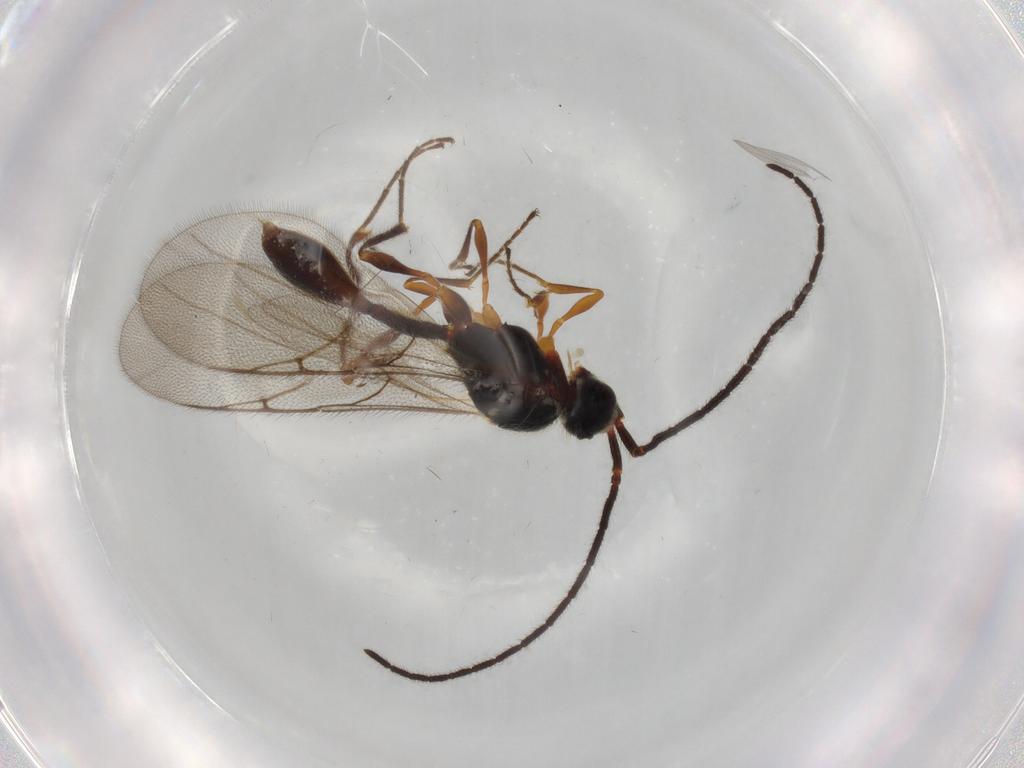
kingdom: Animalia
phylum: Arthropoda
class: Insecta
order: Hymenoptera
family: Diapriidae
